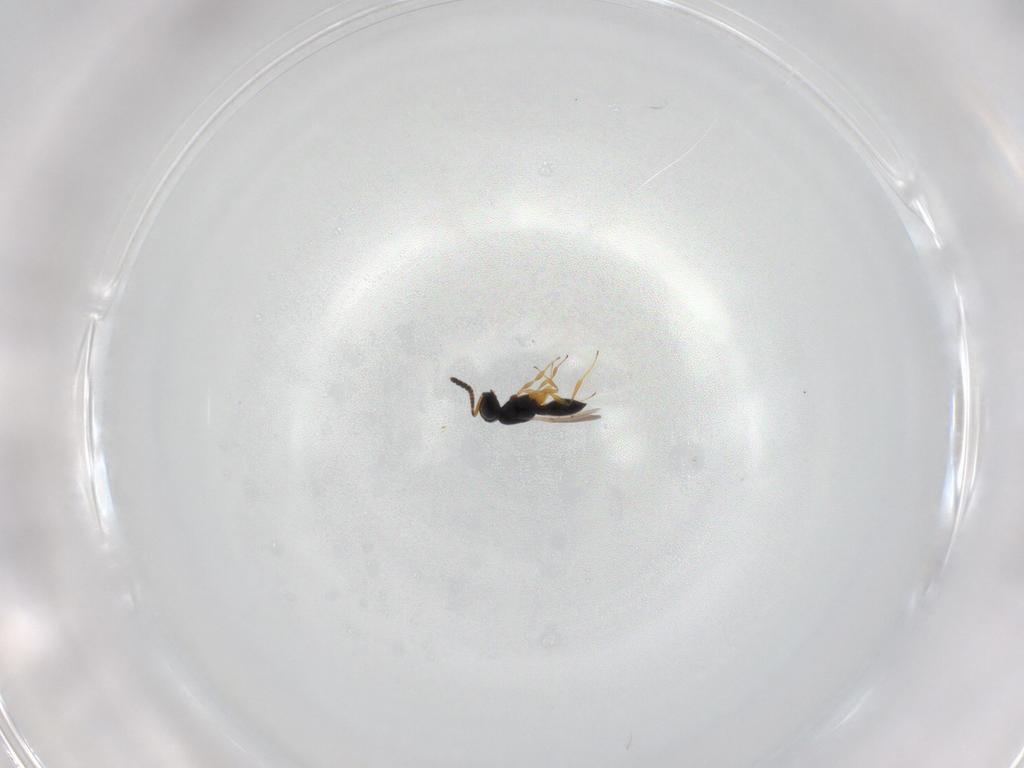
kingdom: Animalia
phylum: Arthropoda
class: Insecta
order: Hymenoptera
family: Scelionidae
